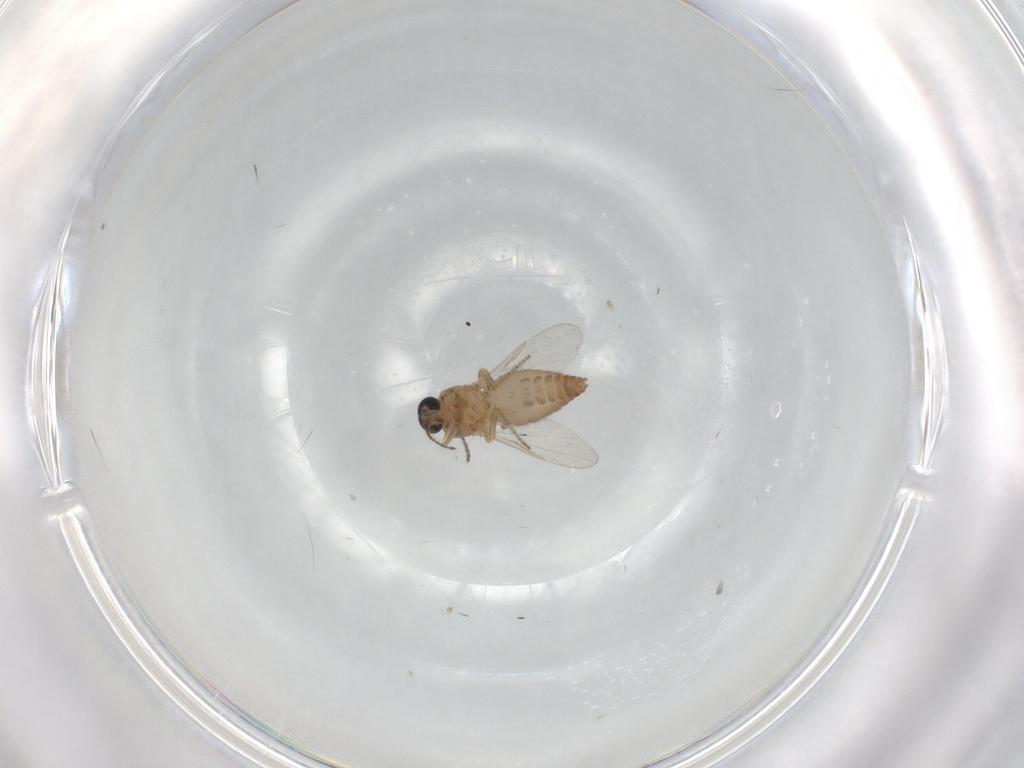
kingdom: Animalia
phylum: Arthropoda
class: Insecta
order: Diptera
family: Ceratopogonidae
